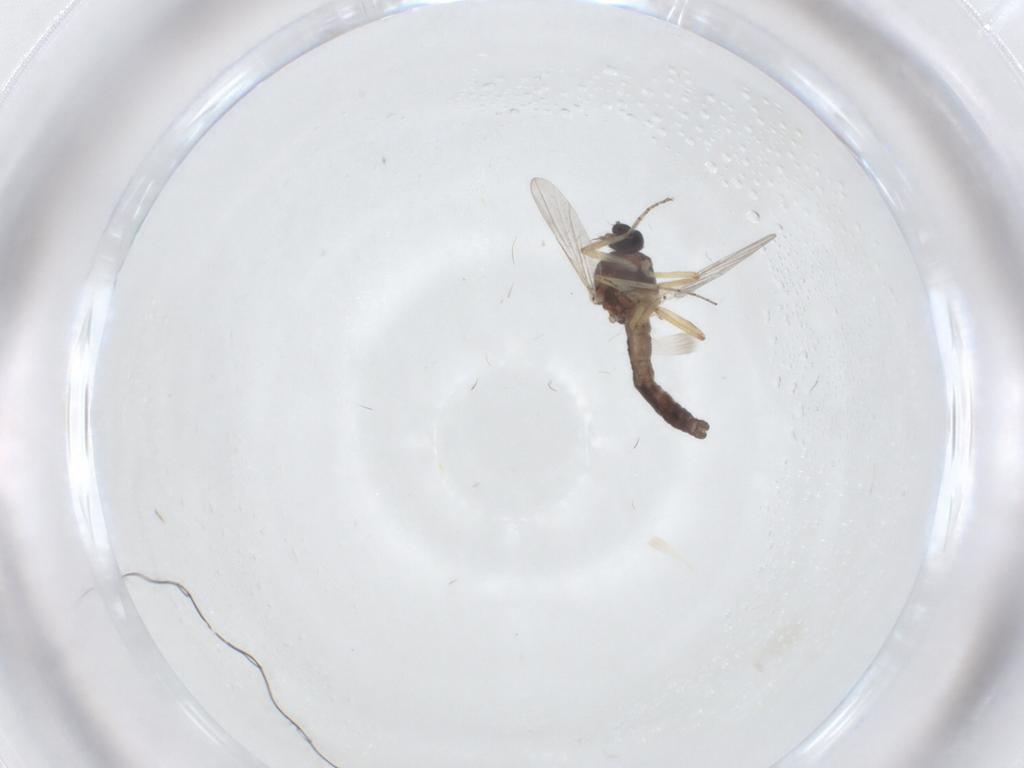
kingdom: Animalia
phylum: Arthropoda
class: Insecta
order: Diptera
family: Ceratopogonidae
